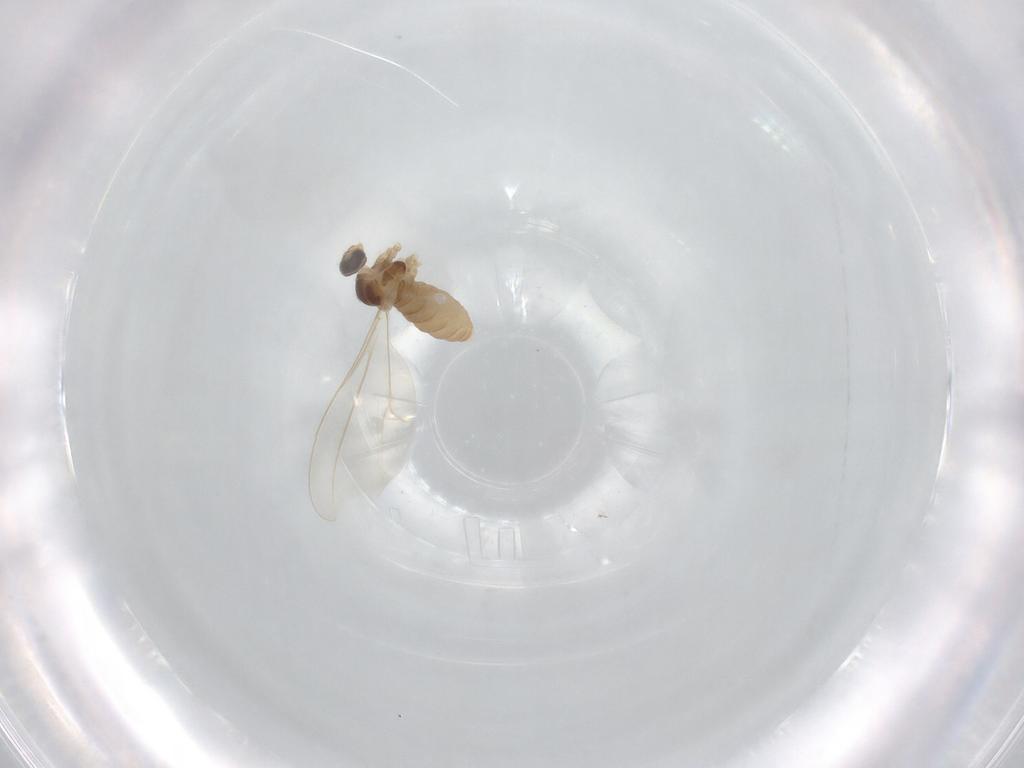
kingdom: Animalia
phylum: Arthropoda
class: Insecta
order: Diptera
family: Cecidomyiidae
